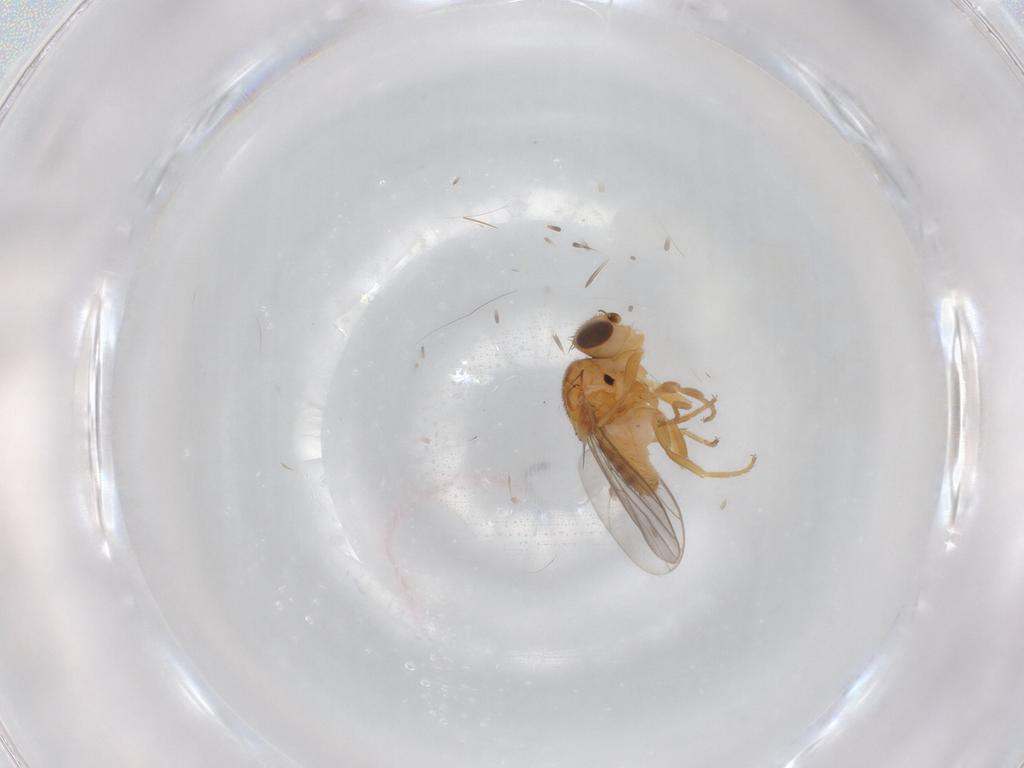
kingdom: Animalia
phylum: Arthropoda
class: Insecta
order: Diptera
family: Chloropidae
